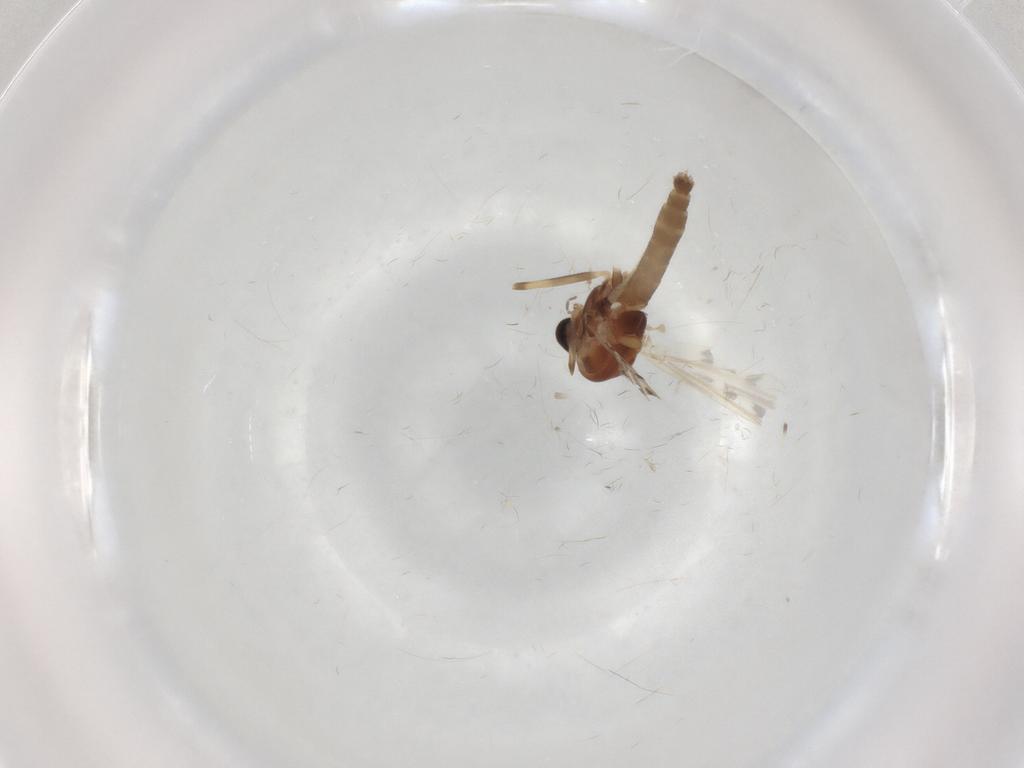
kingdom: Animalia
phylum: Arthropoda
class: Insecta
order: Diptera
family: Chironomidae
